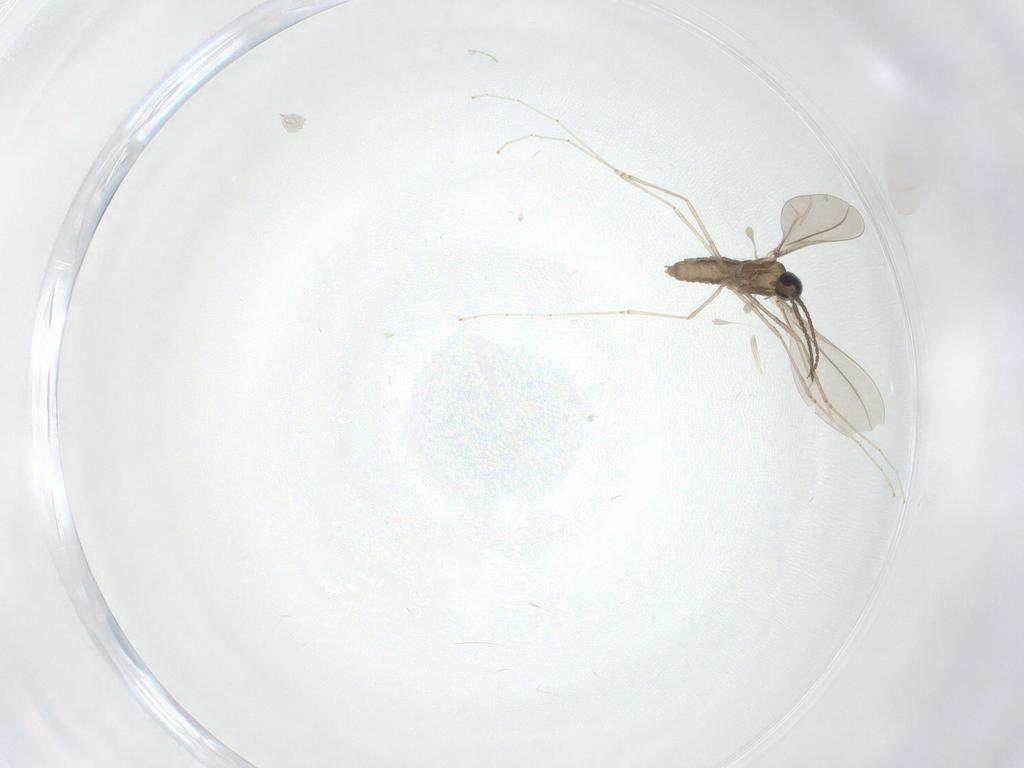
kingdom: Animalia
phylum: Arthropoda
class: Insecta
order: Diptera
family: Cecidomyiidae
